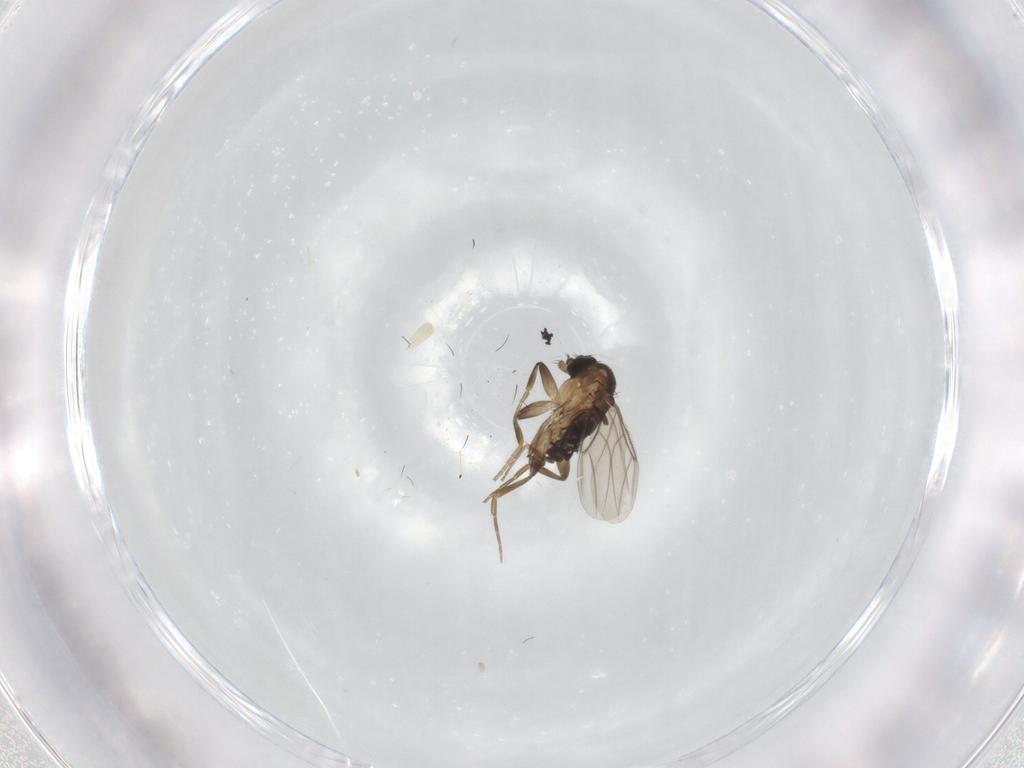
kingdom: Animalia
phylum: Arthropoda
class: Insecta
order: Diptera
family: Phoridae
